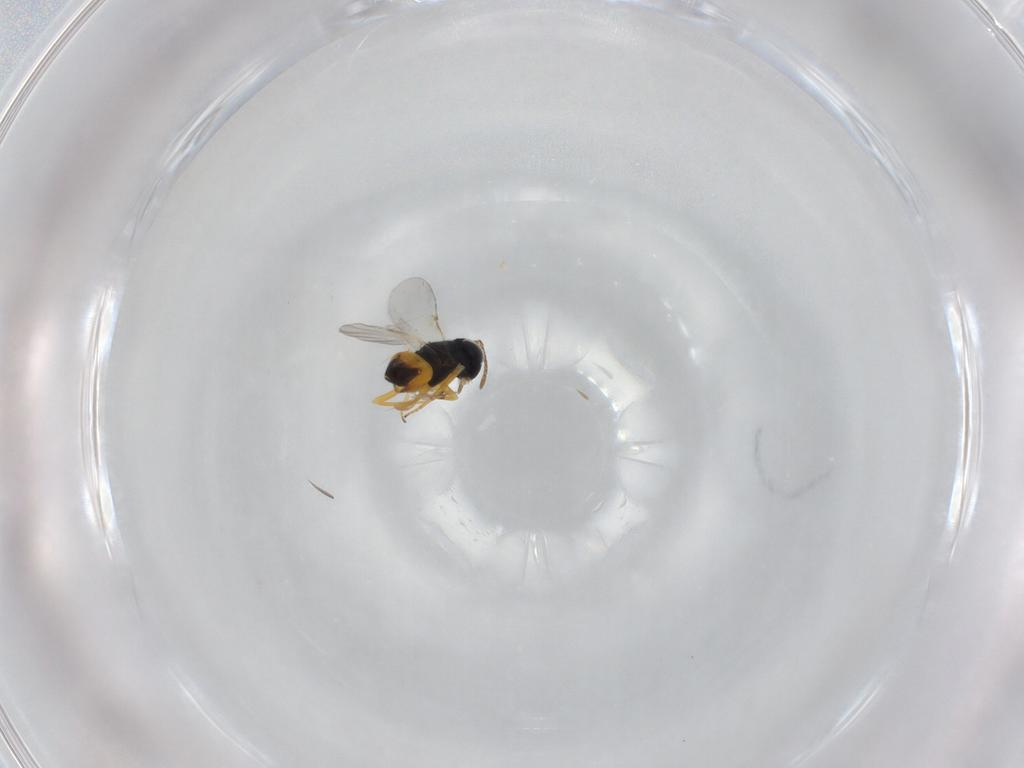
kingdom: Animalia
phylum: Arthropoda
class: Insecta
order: Hymenoptera
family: Encyrtidae
